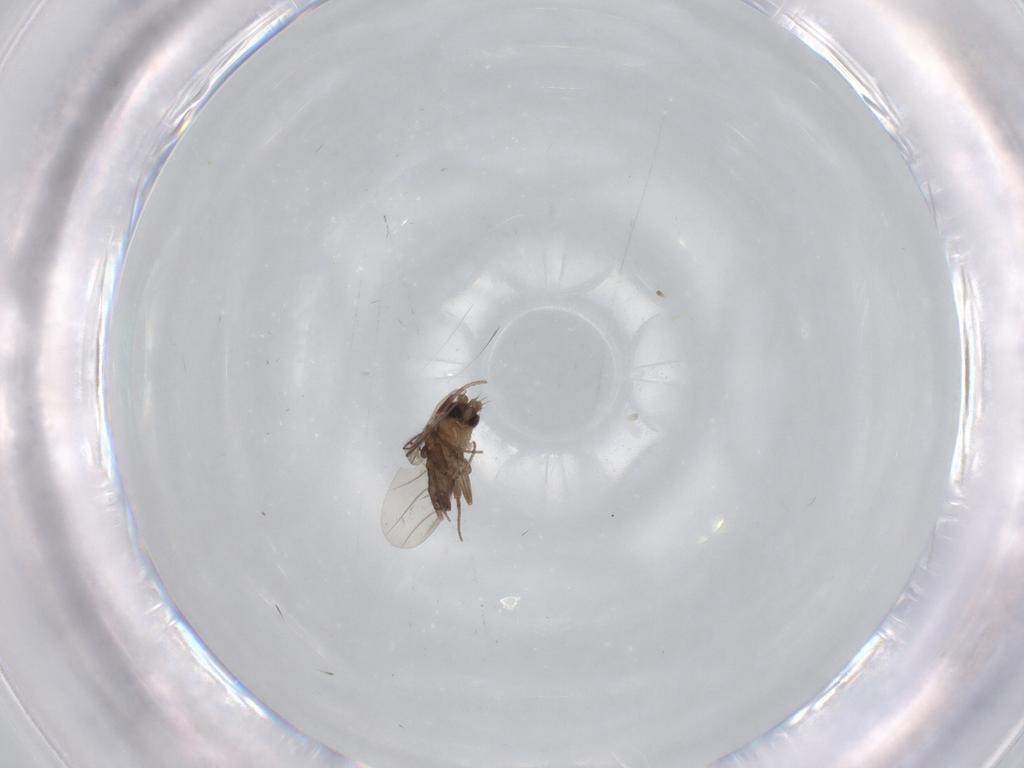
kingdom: Animalia
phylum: Arthropoda
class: Insecta
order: Diptera
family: Phoridae
